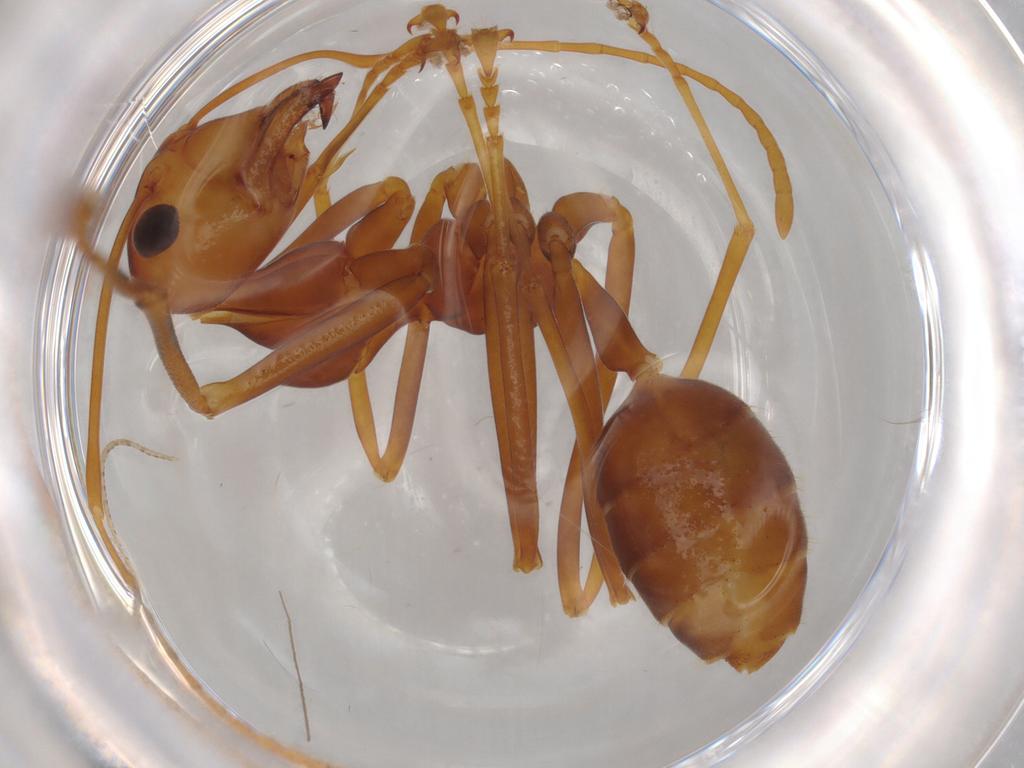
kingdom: Animalia
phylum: Arthropoda
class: Insecta
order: Hymenoptera
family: Formicidae
